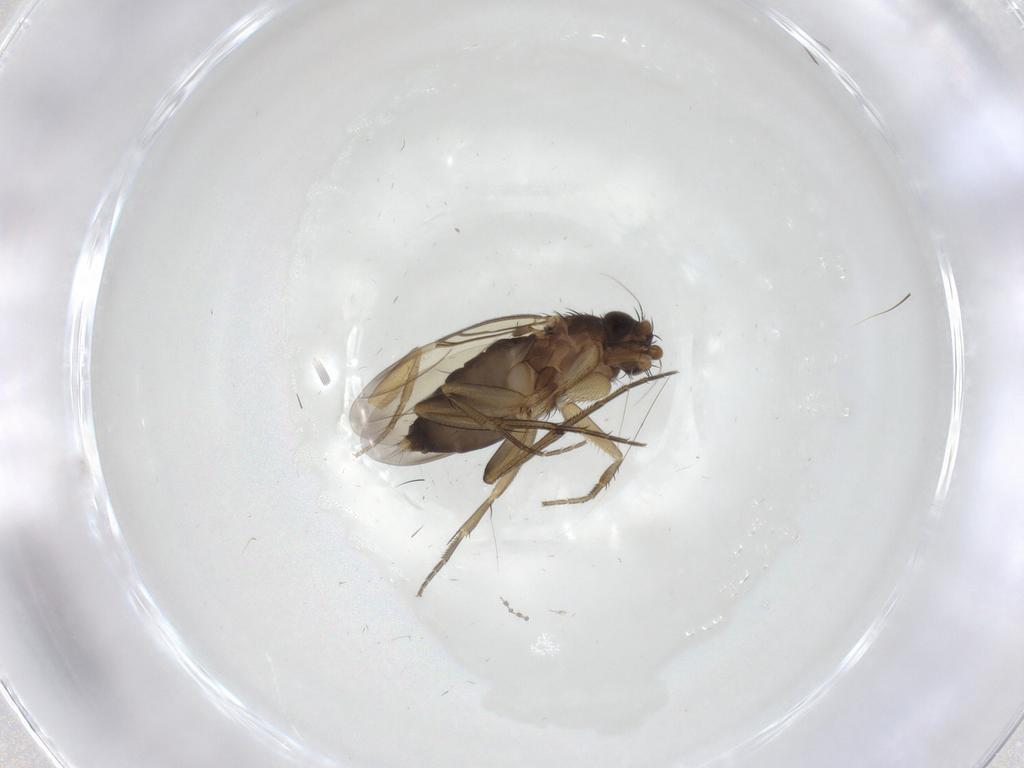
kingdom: Animalia
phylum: Arthropoda
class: Insecta
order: Diptera
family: Phoridae
